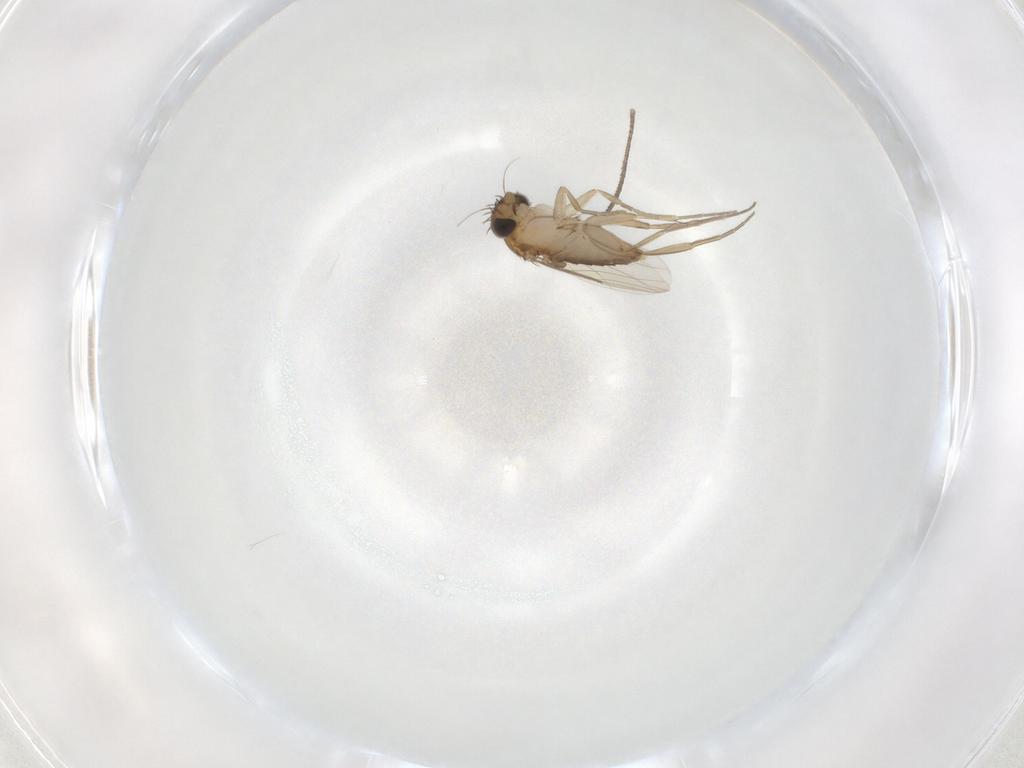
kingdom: Animalia
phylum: Arthropoda
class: Insecta
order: Diptera
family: Phoridae
